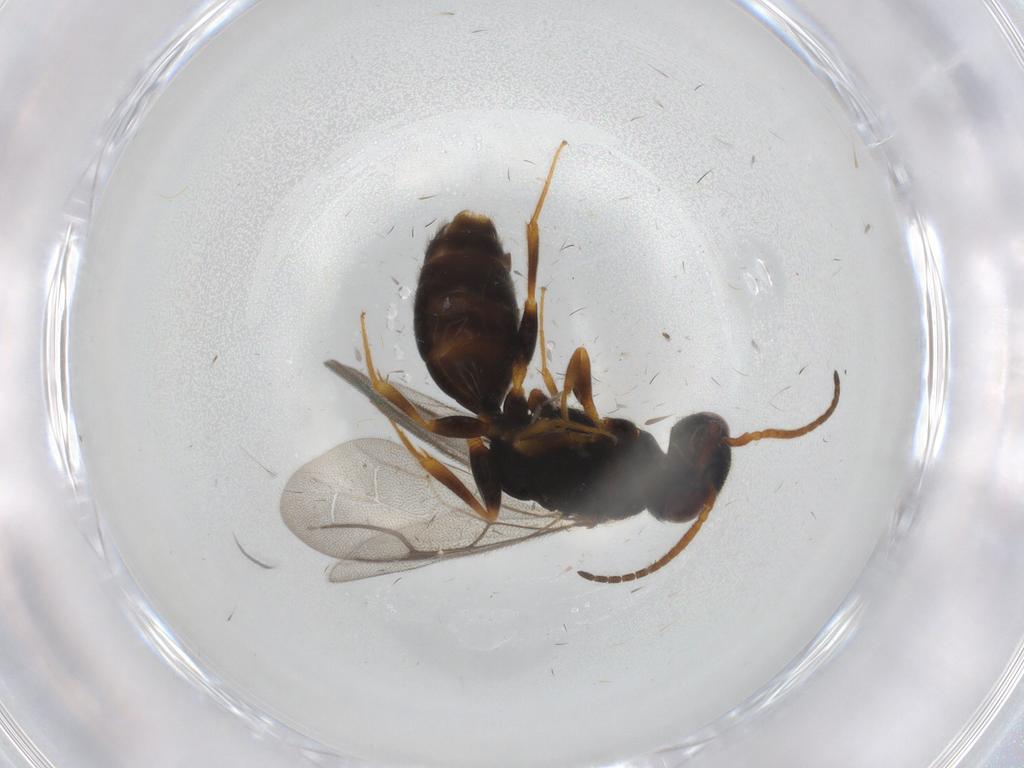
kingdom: Animalia
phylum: Arthropoda
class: Insecta
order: Hymenoptera
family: Bethylidae
